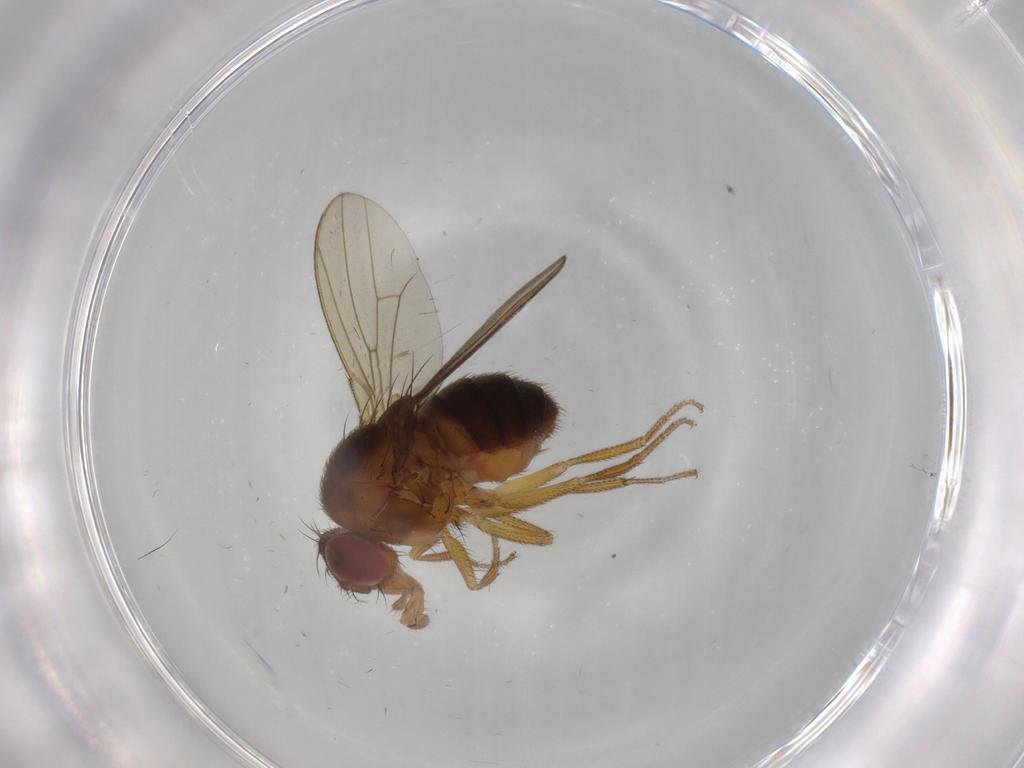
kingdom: Animalia
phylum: Arthropoda
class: Insecta
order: Diptera
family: Drosophilidae
